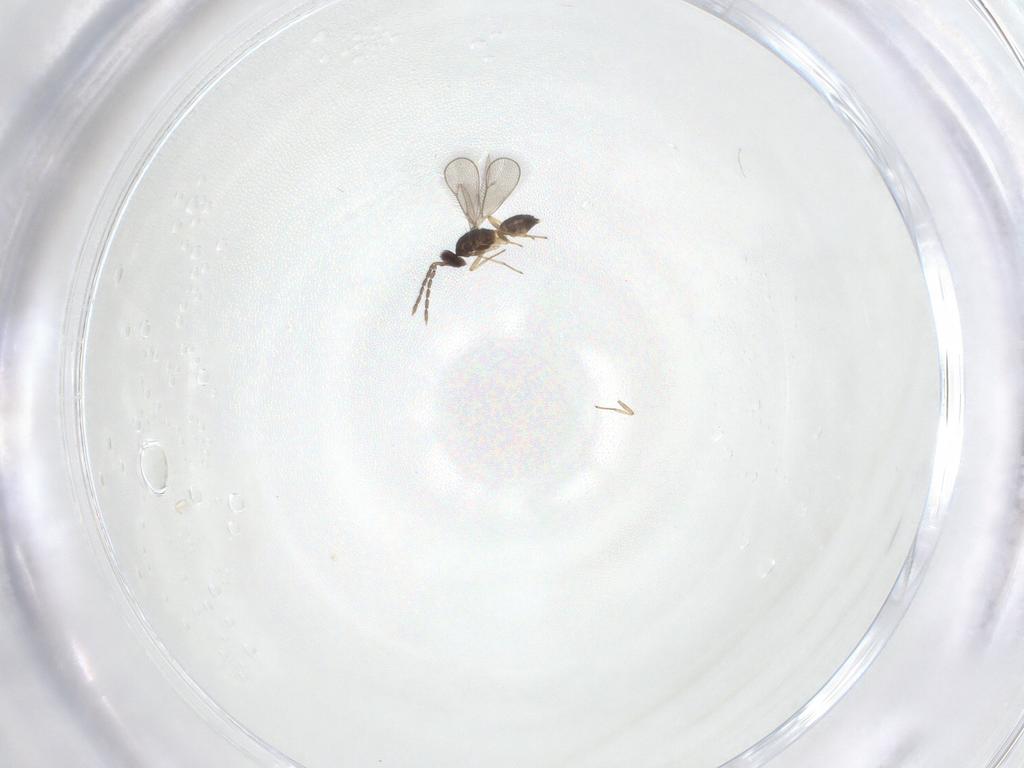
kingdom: Animalia
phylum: Arthropoda
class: Insecta
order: Hymenoptera
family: Eulophidae
